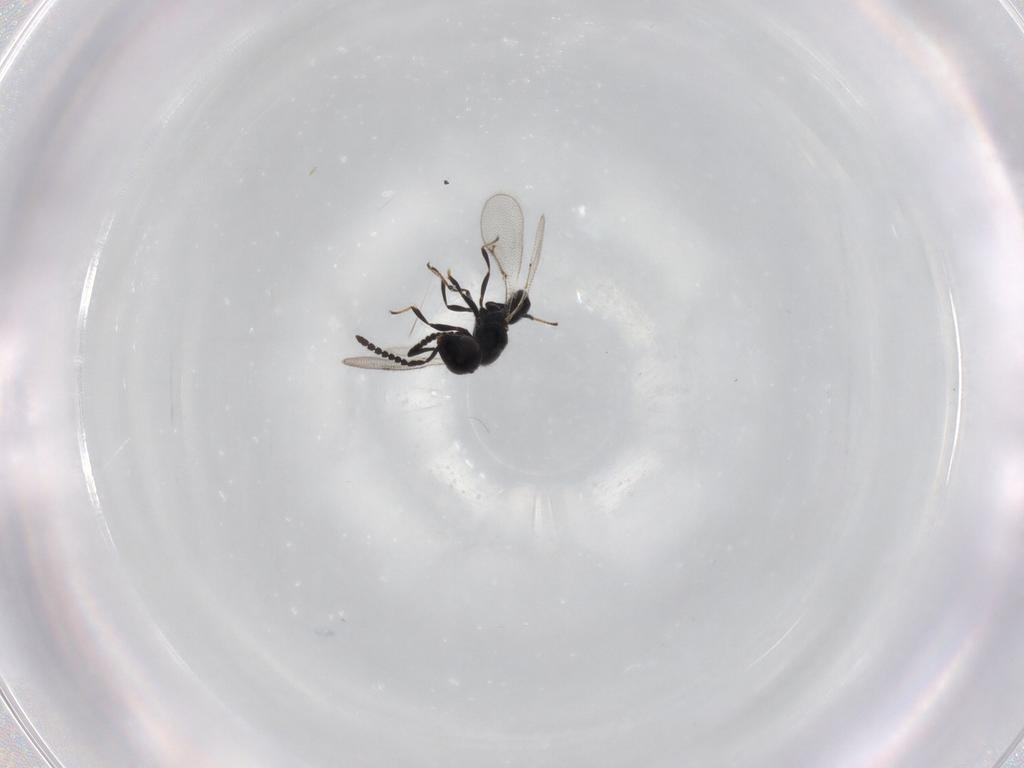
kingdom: Animalia
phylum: Arthropoda
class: Insecta
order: Hymenoptera
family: Spalangiidae
